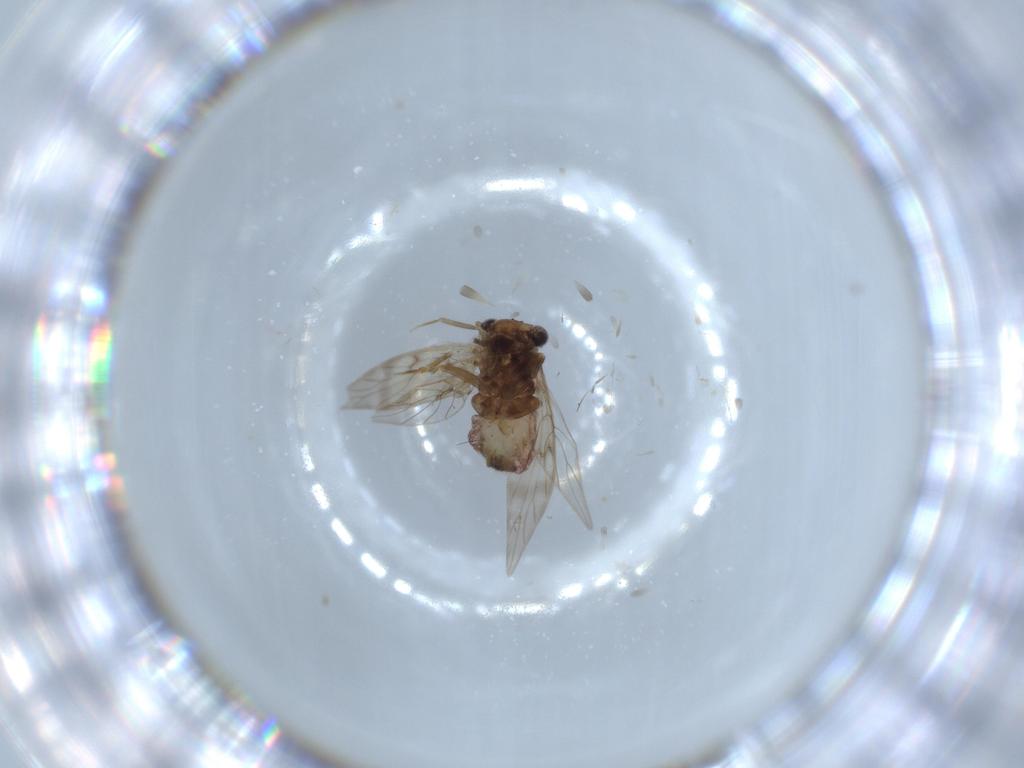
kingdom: Animalia
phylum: Arthropoda
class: Insecta
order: Psocodea
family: Lepidopsocidae
